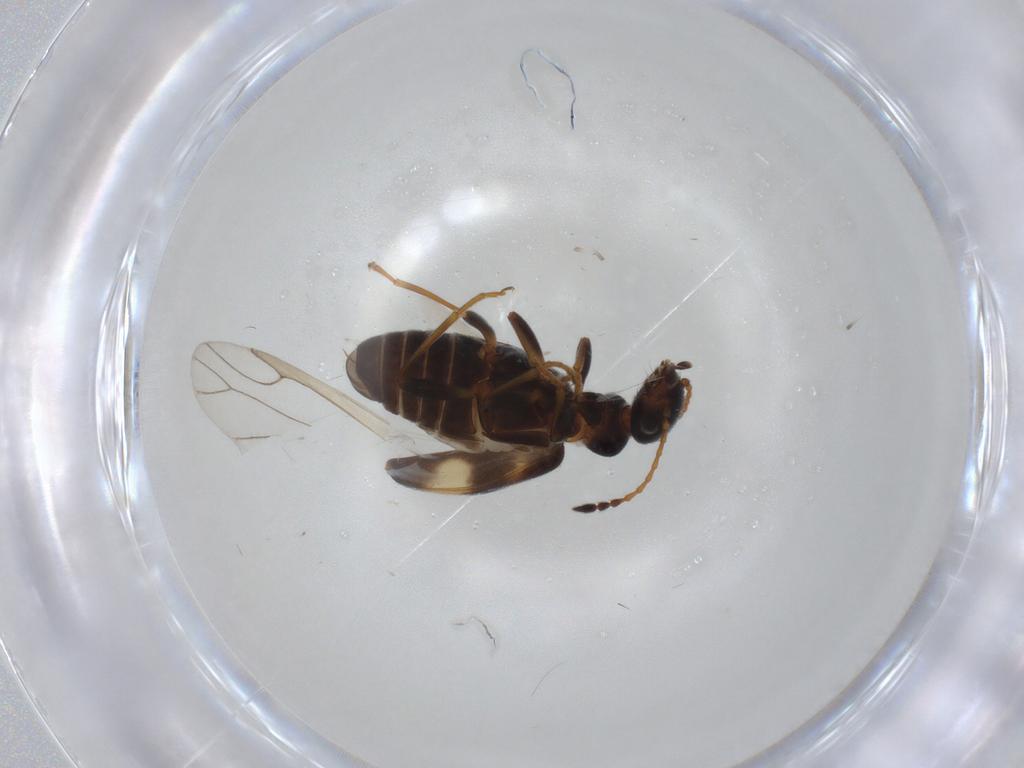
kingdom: Animalia
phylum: Arthropoda
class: Insecta
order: Coleoptera
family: Anthicidae
